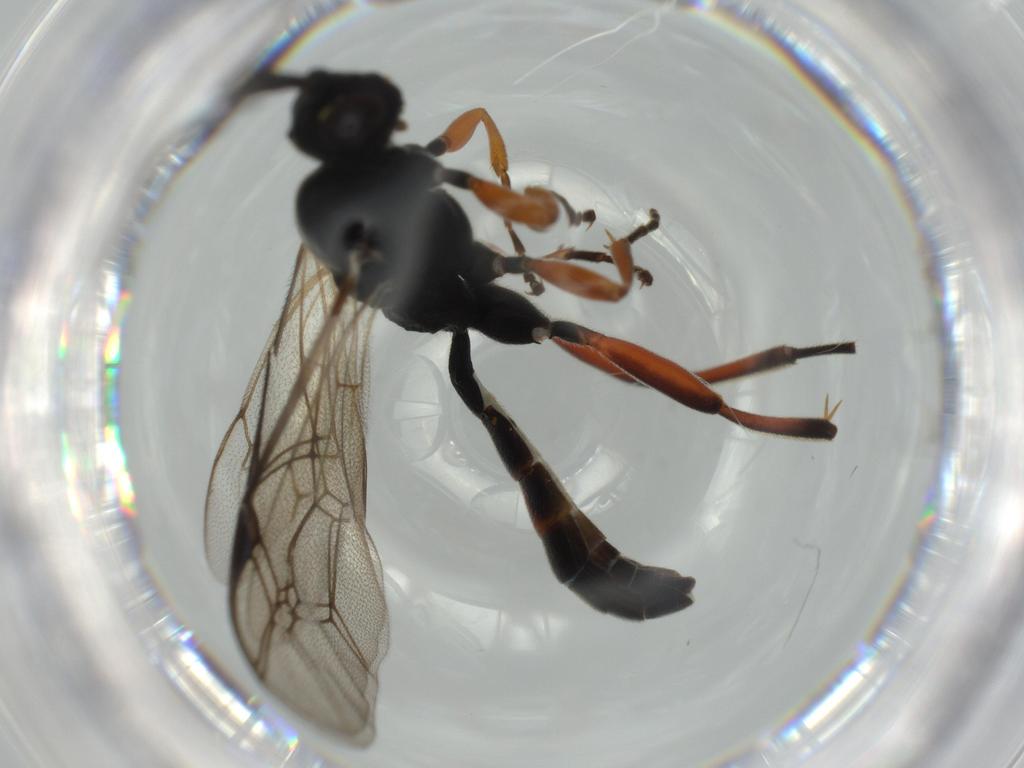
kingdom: Animalia
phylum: Arthropoda
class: Insecta
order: Hymenoptera
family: Ichneumonidae
